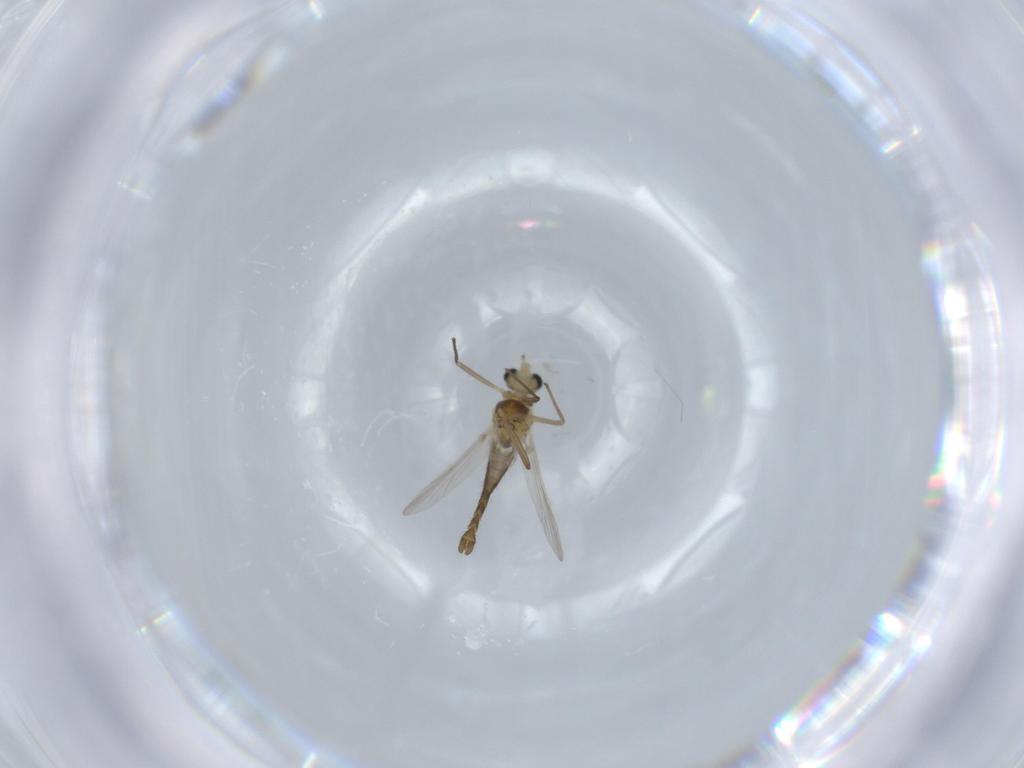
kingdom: Animalia
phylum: Arthropoda
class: Insecta
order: Diptera
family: Chironomidae
